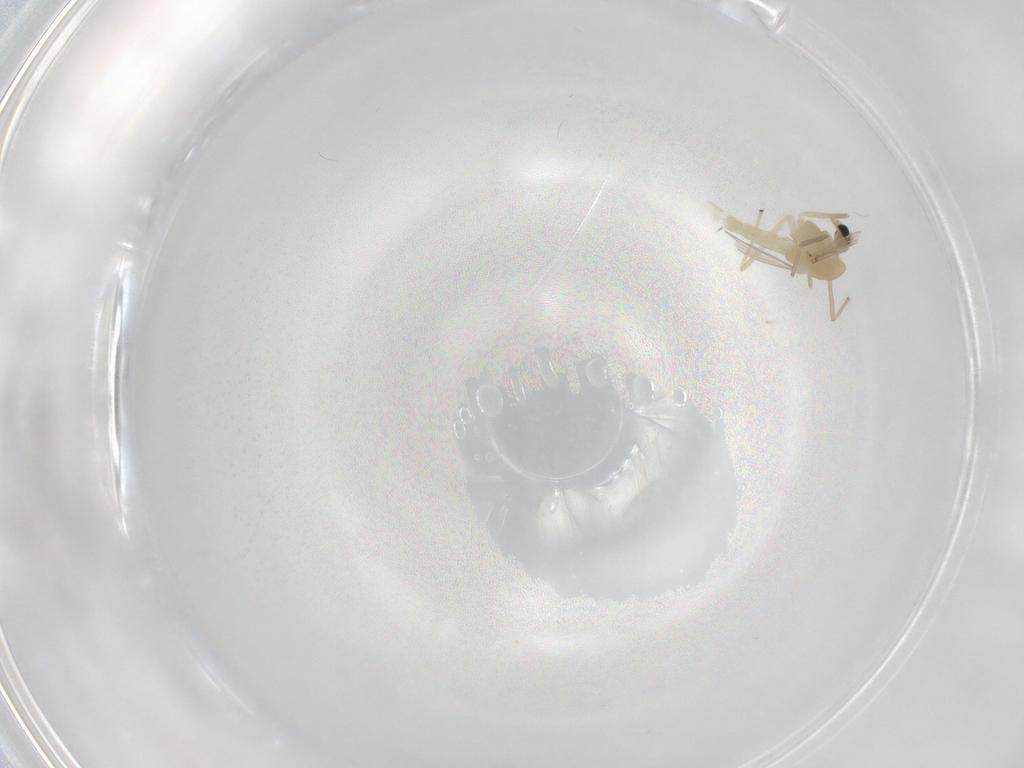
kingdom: Animalia
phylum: Arthropoda
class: Insecta
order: Diptera
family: Chironomidae
